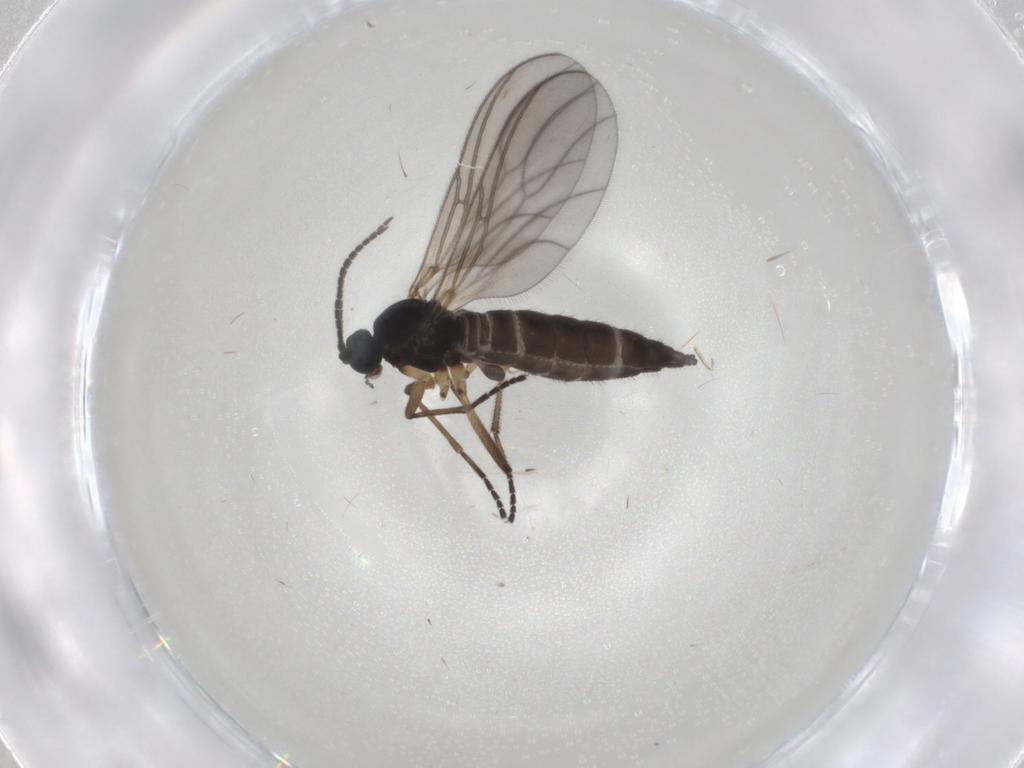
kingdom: Animalia
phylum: Arthropoda
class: Insecta
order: Diptera
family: Sciaridae
